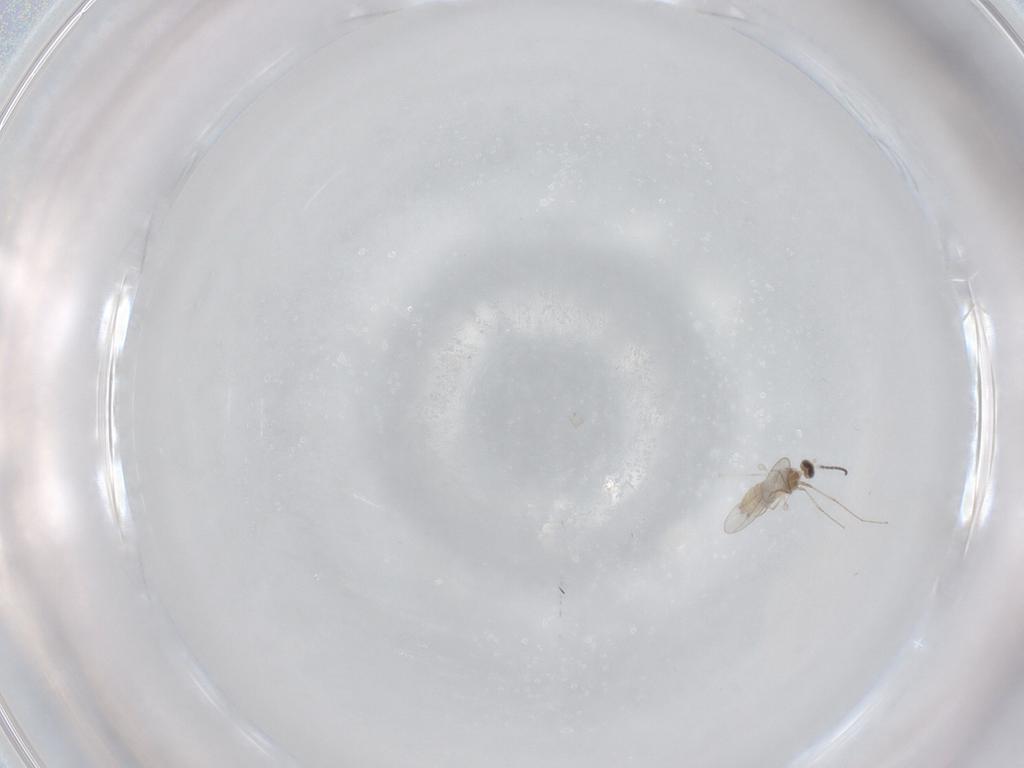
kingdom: Animalia
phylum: Arthropoda
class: Insecta
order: Diptera
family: Cecidomyiidae
